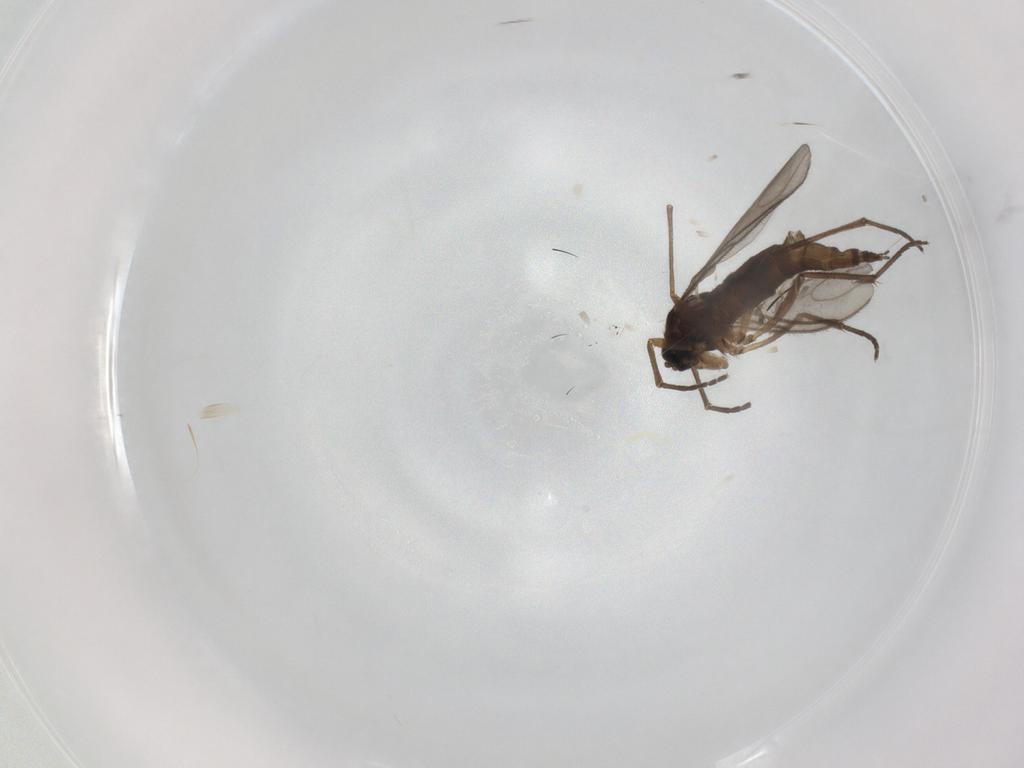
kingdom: Animalia
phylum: Arthropoda
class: Insecta
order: Diptera
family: Sciaridae
